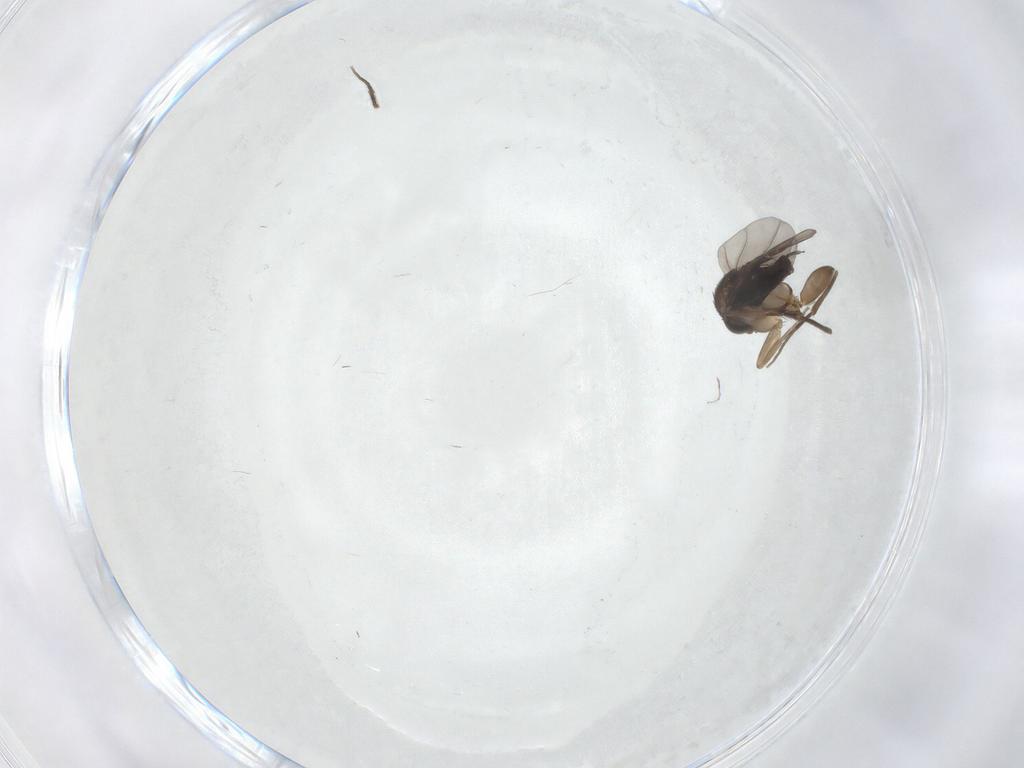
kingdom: Animalia
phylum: Arthropoda
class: Insecta
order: Diptera
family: Phoridae
